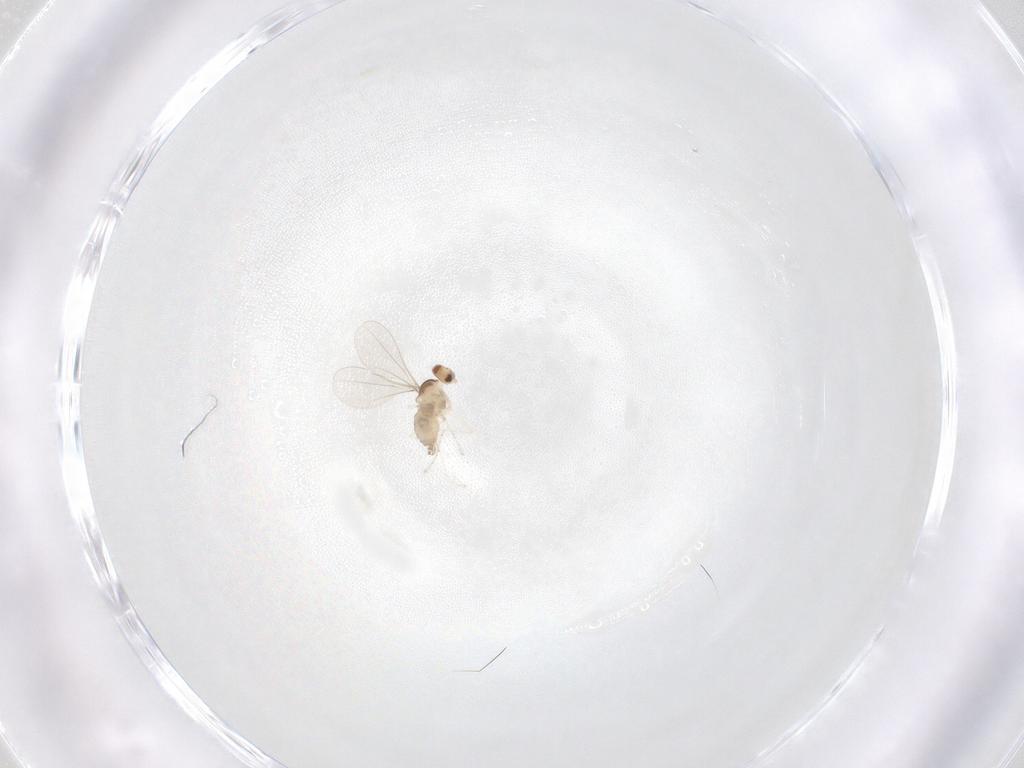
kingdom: Animalia
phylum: Arthropoda
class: Insecta
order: Diptera
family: Cecidomyiidae
